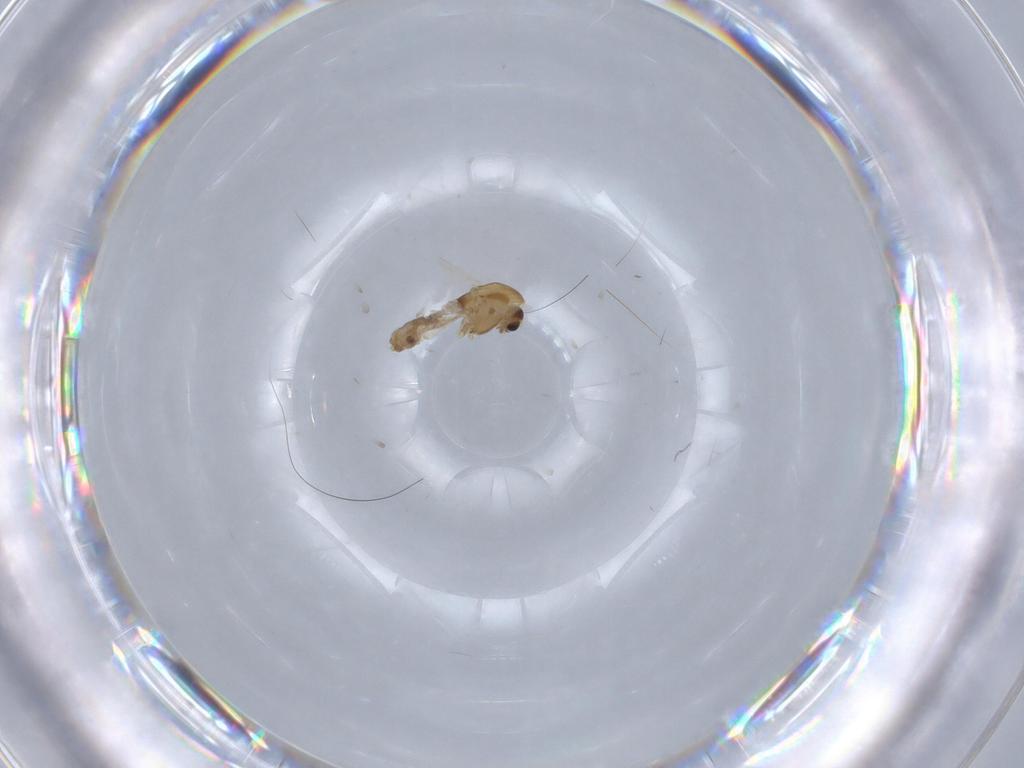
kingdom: Animalia
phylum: Arthropoda
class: Insecta
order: Diptera
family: Chironomidae
